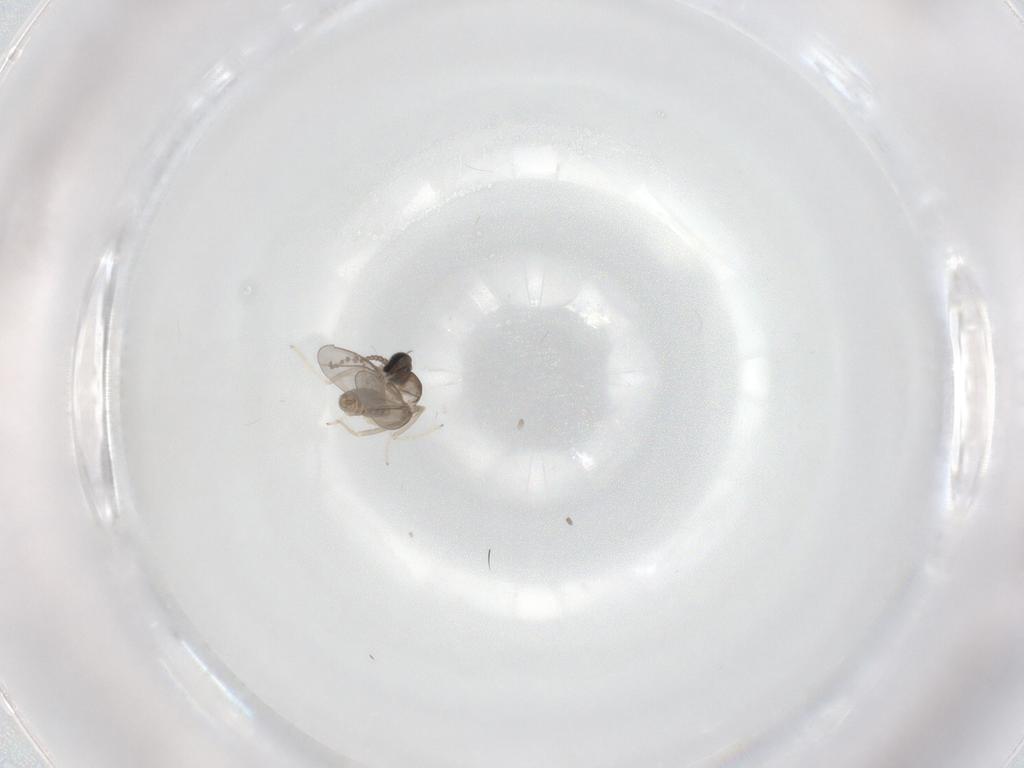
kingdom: Animalia
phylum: Arthropoda
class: Insecta
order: Diptera
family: Cecidomyiidae
